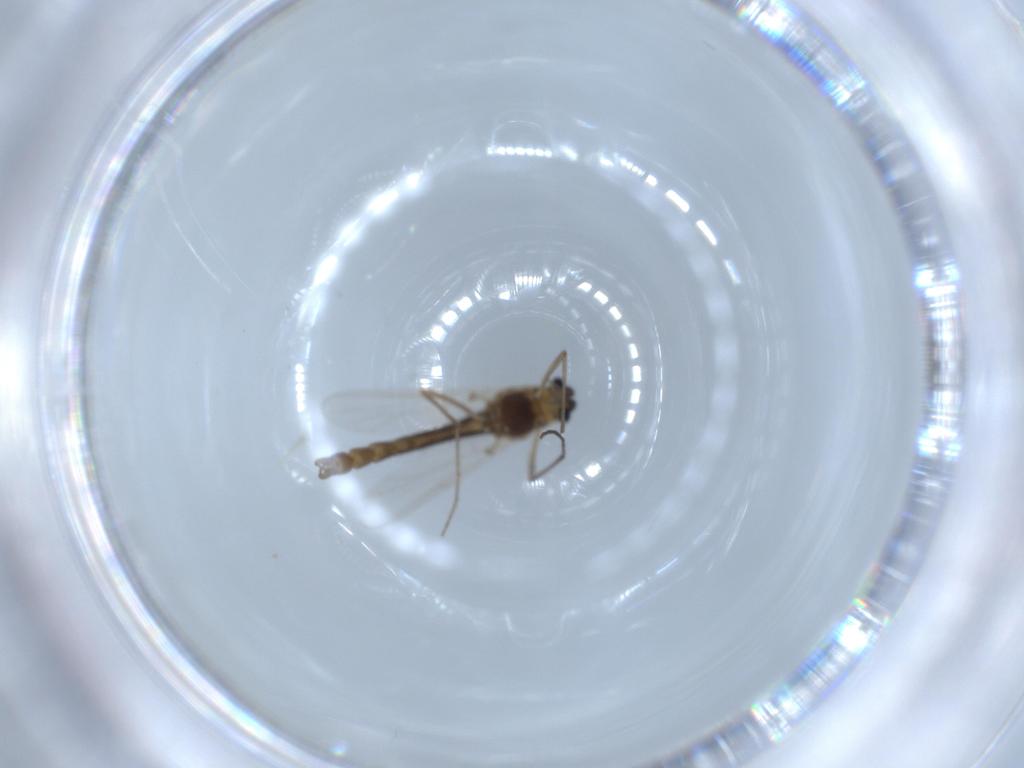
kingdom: Animalia
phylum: Arthropoda
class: Insecta
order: Diptera
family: Chironomidae
